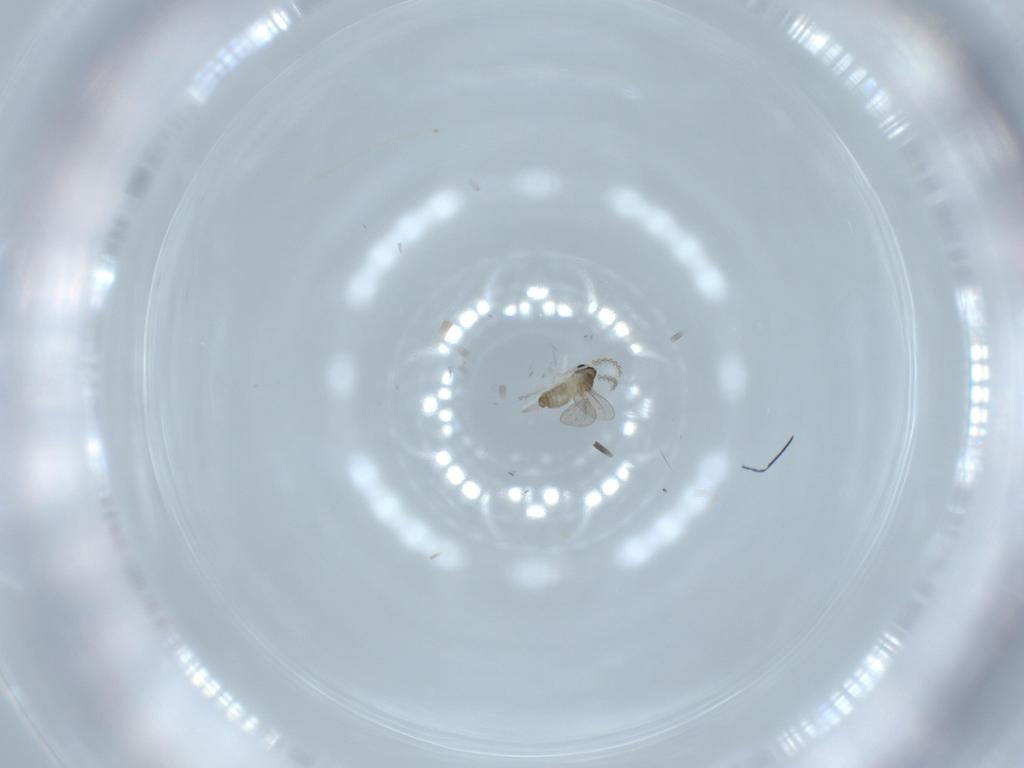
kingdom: Animalia
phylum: Arthropoda
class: Insecta
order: Diptera
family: Cecidomyiidae
